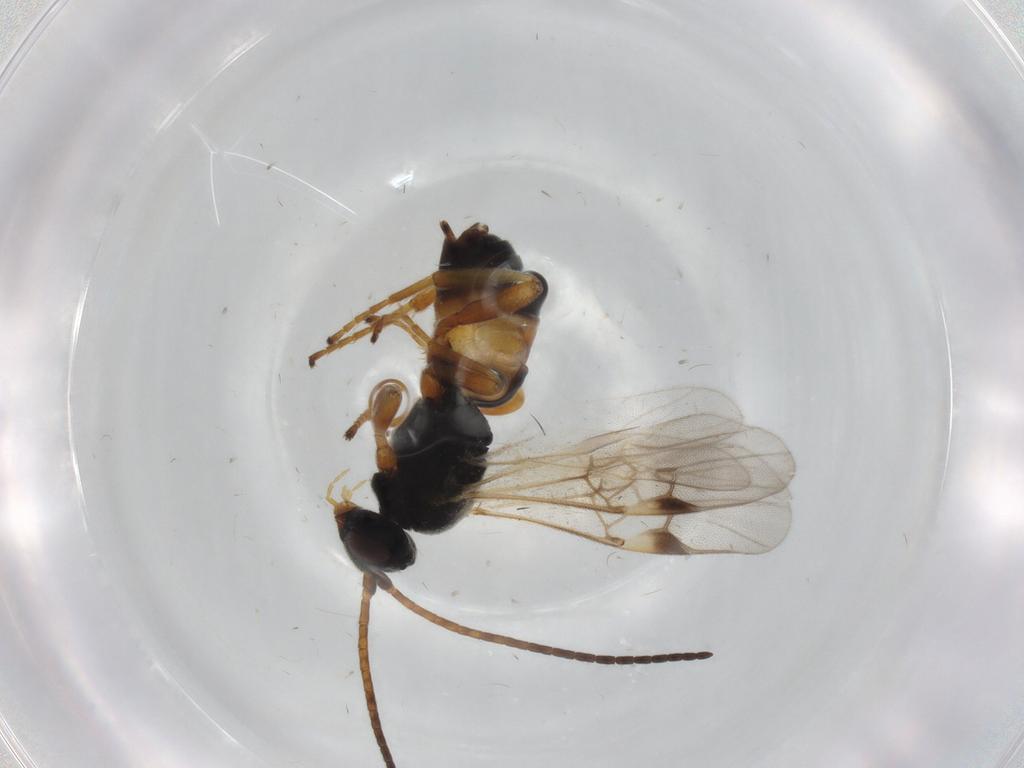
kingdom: Animalia
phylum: Arthropoda
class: Insecta
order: Hymenoptera
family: Braconidae
